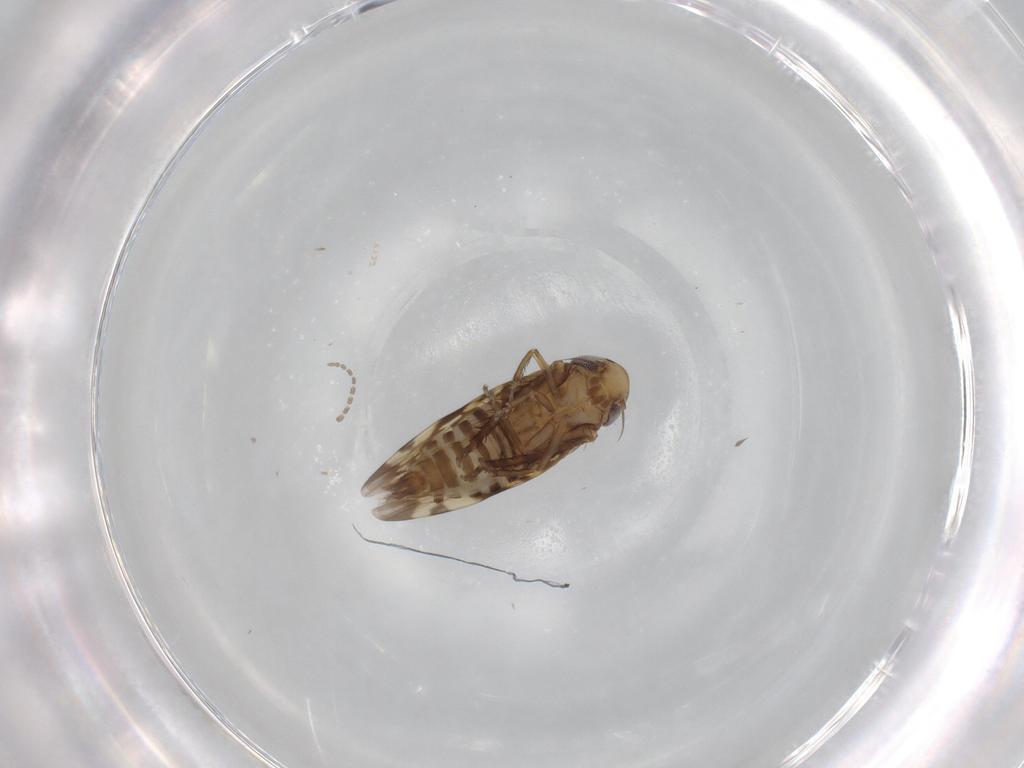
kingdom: Animalia
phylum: Arthropoda
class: Insecta
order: Hemiptera
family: Cicadellidae
